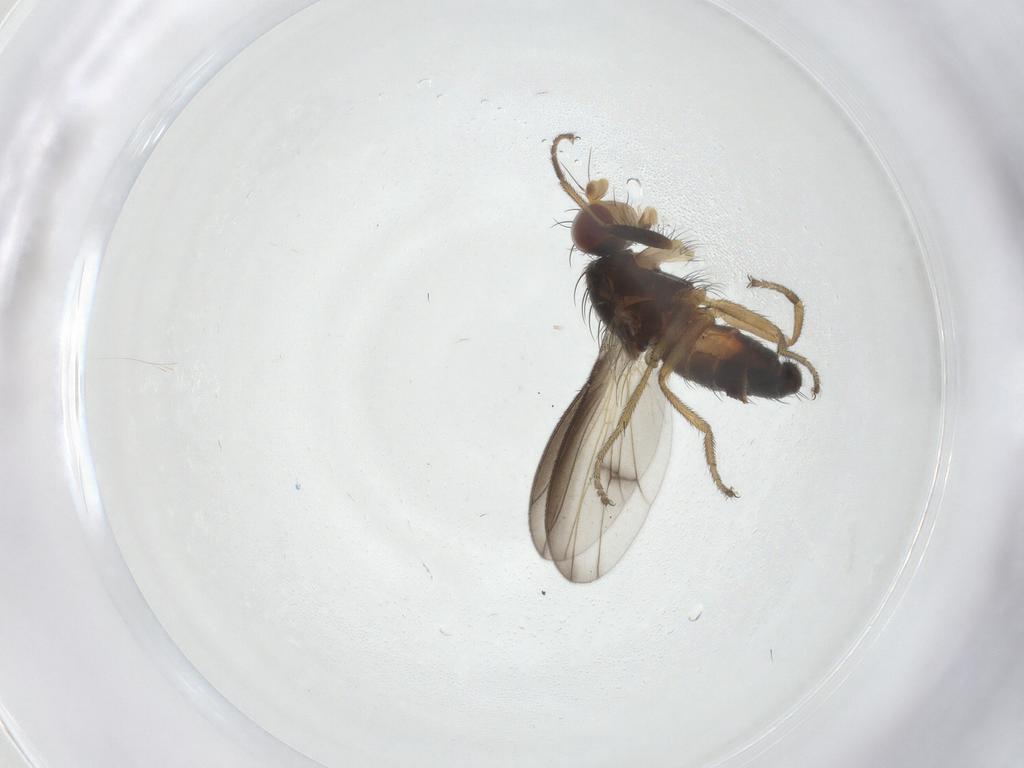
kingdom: Animalia
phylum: Arthropoda
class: Insecta
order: Diptera
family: Heleomyzidae
